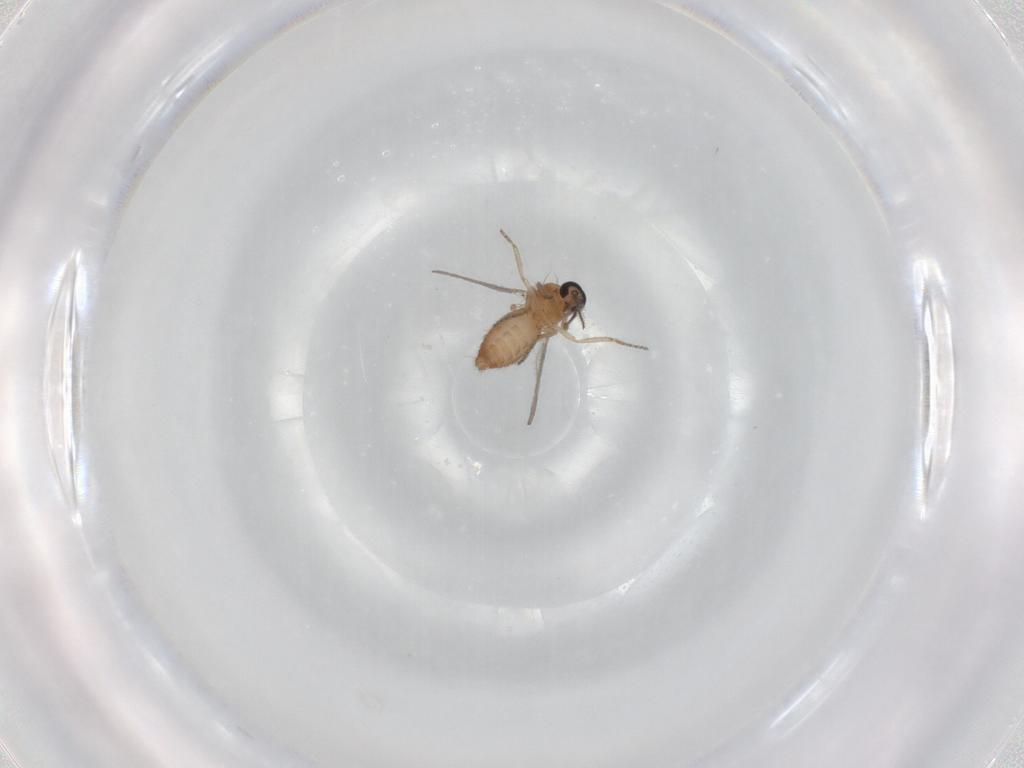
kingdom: Animalia
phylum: Arthropoda
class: Insecta
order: Diptera
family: Ceratopogonidae
